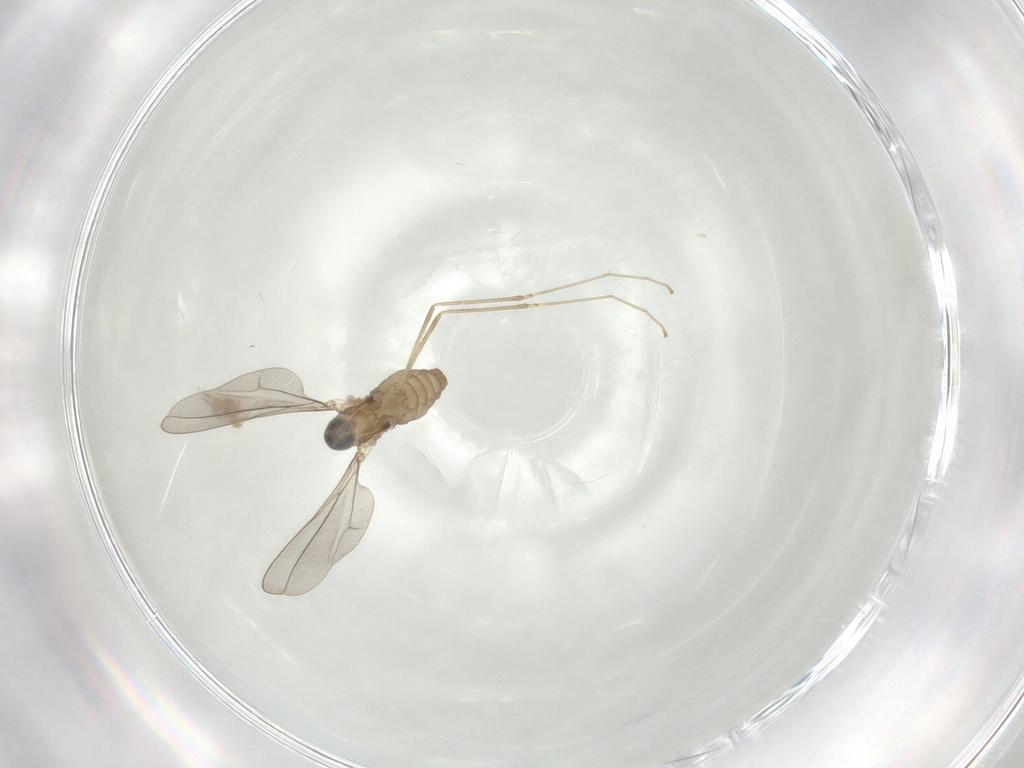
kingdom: Animalia
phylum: Arthropoda
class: Insecta
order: Diptera
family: Cecidomyiidae
